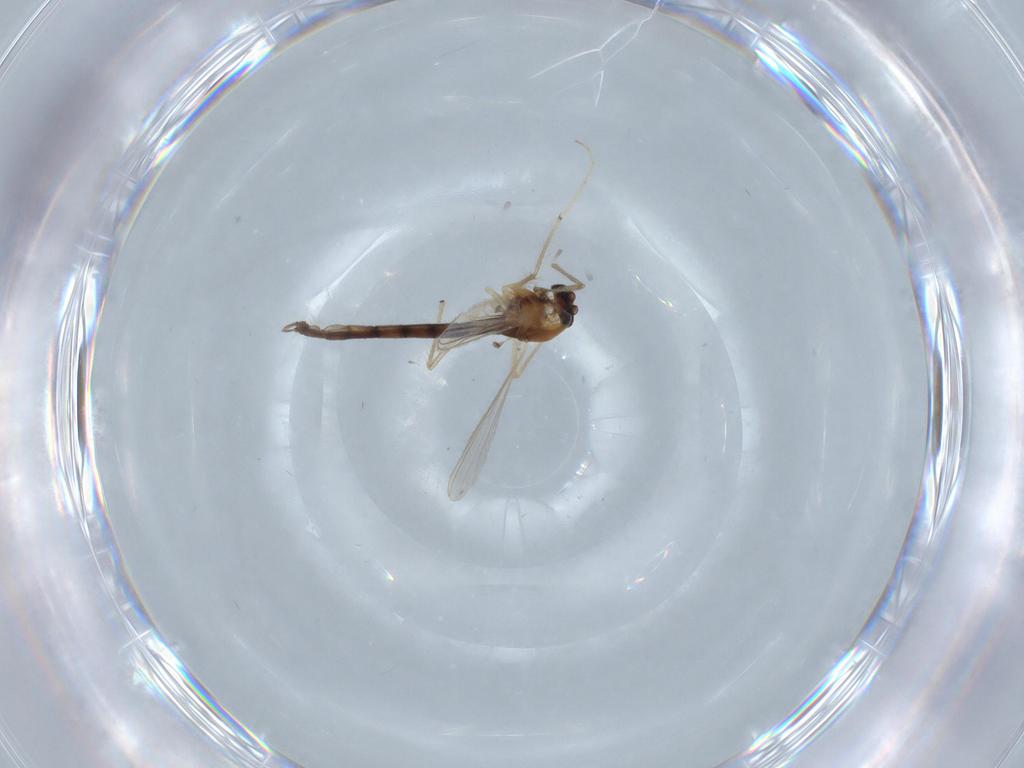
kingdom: Animalia
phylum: Arthropoda
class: Insecta
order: Diptera
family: Chironomidae
